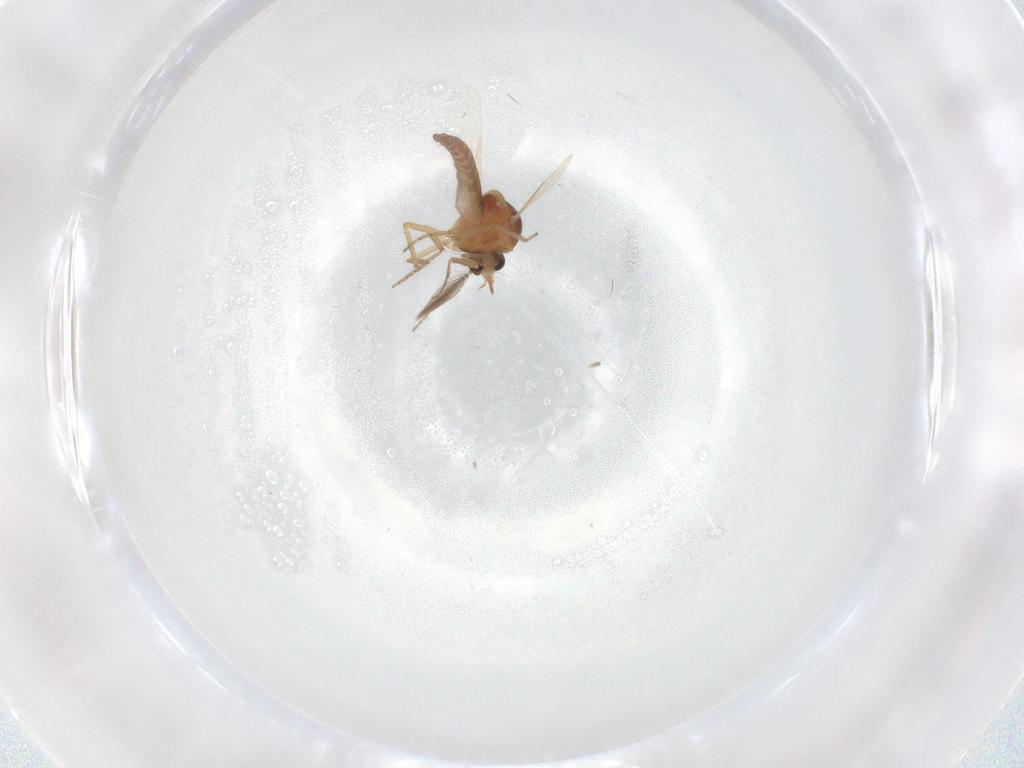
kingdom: Animalia
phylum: Arthropoda
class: Insecta
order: Diptera
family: Ceratopogonidae
